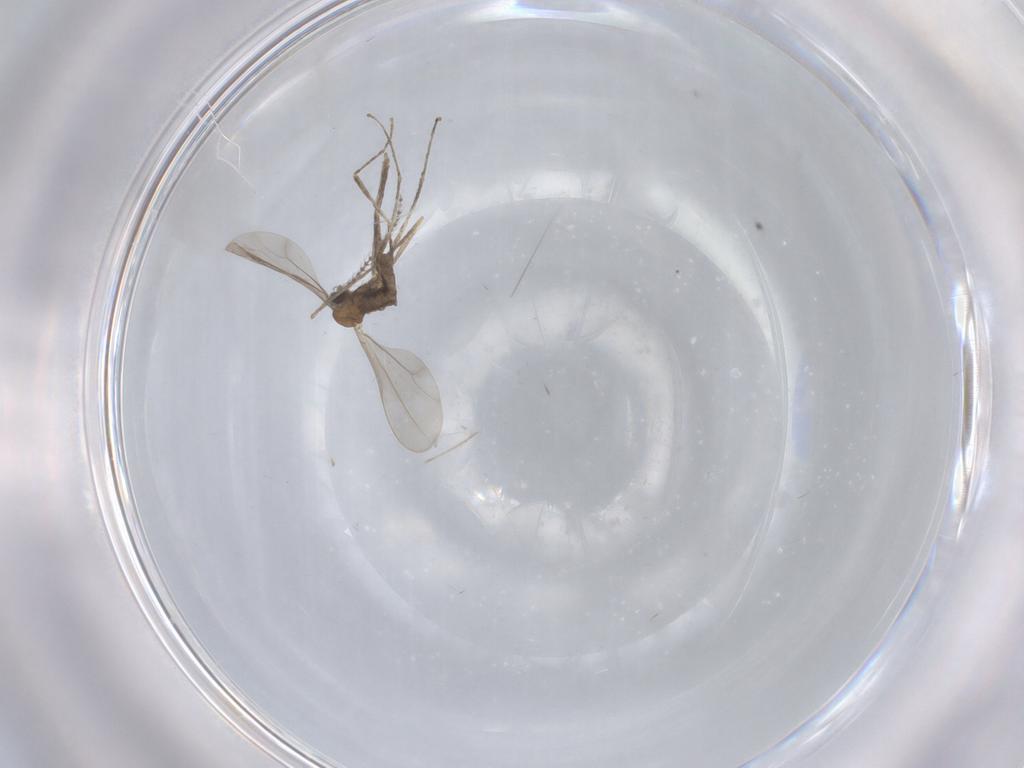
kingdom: Animalia
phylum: Arthropoda
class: Insecta
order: Diptera
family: Cecidomyiidae
